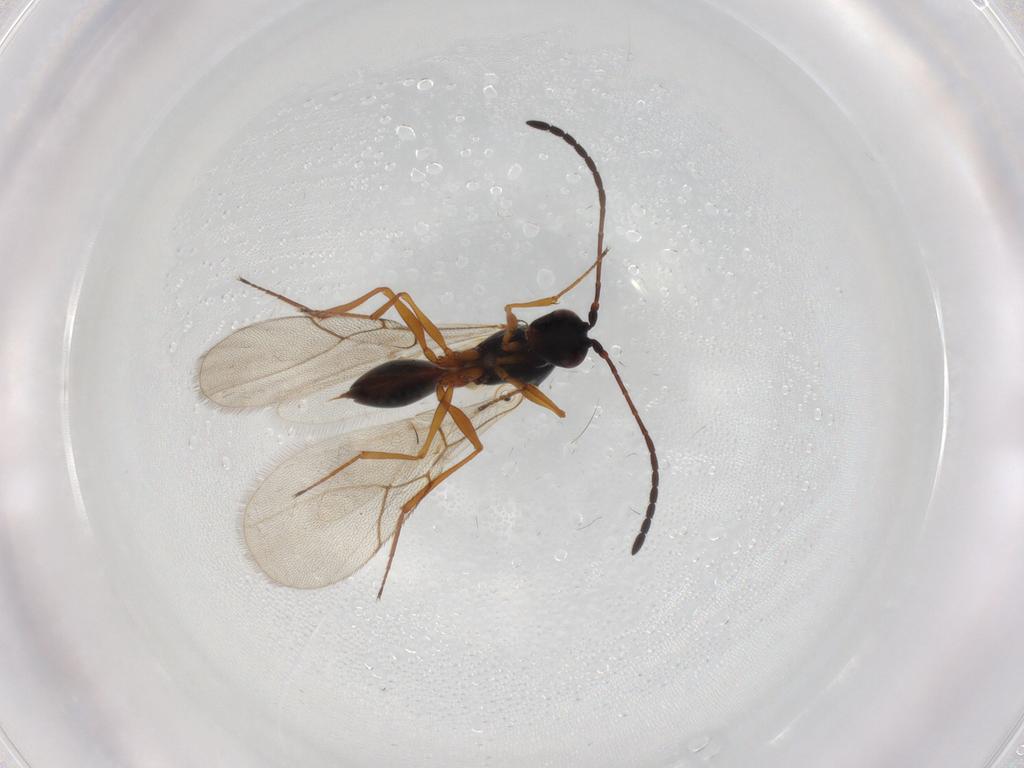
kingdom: Animalia
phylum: Arthropoda
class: Insecta
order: Hymenoptera
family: Figitidae
